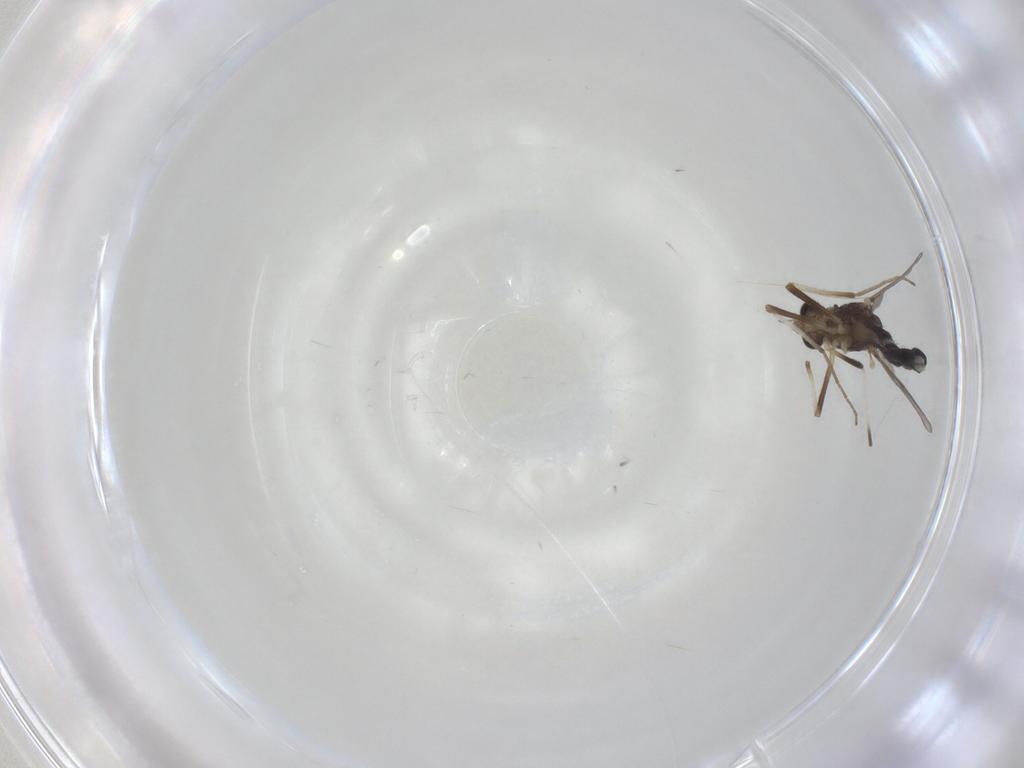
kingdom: Animalia
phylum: Arthropoda
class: Insecta
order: Diptera
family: Chironomidae
